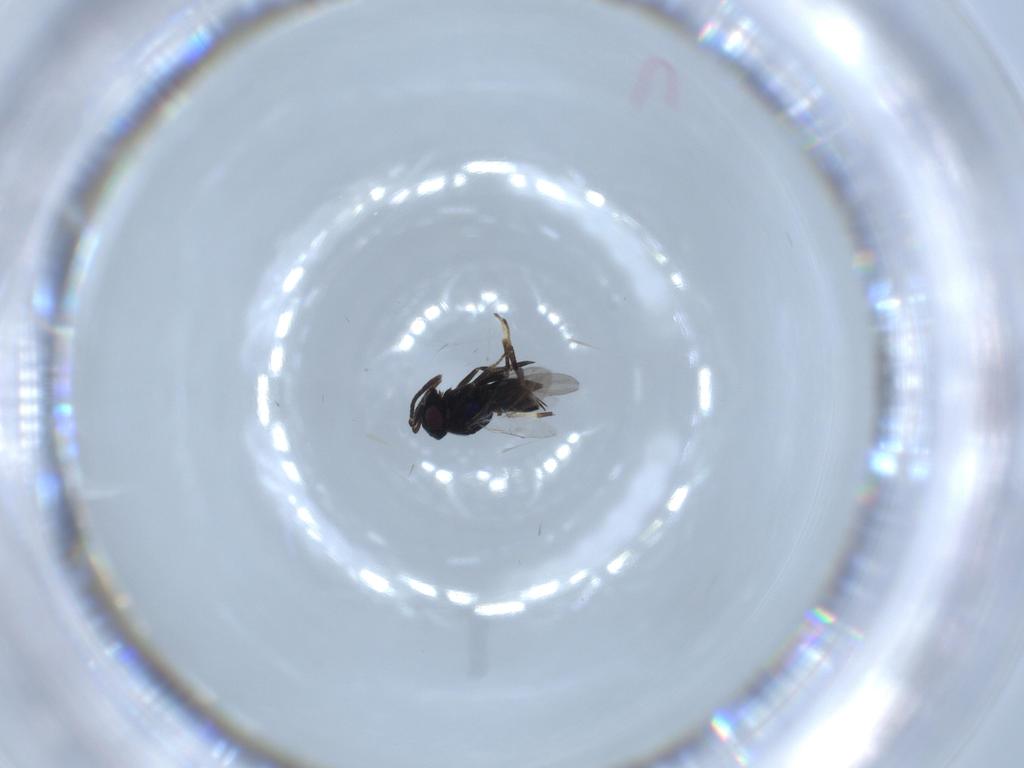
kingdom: Animalia
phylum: Arthropoda
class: Insecta
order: Hymenoptera
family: Encyrtidae
